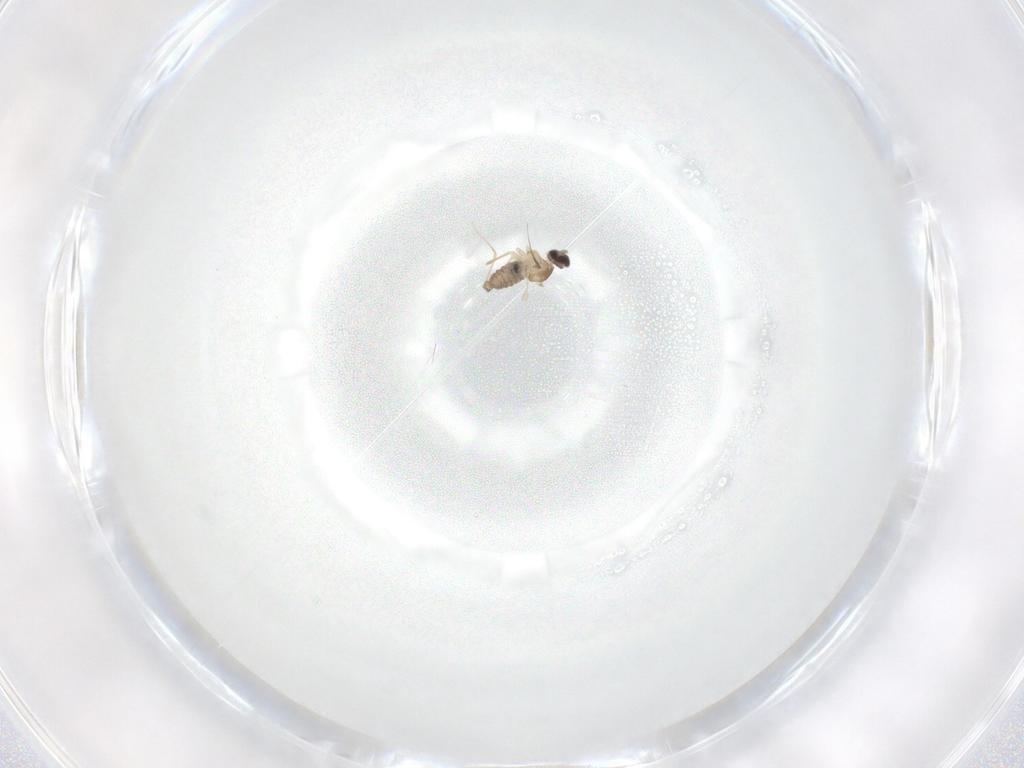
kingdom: Animalia
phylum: Arthropoda
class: Insecta
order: Diptera
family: Cecidomyiidae
